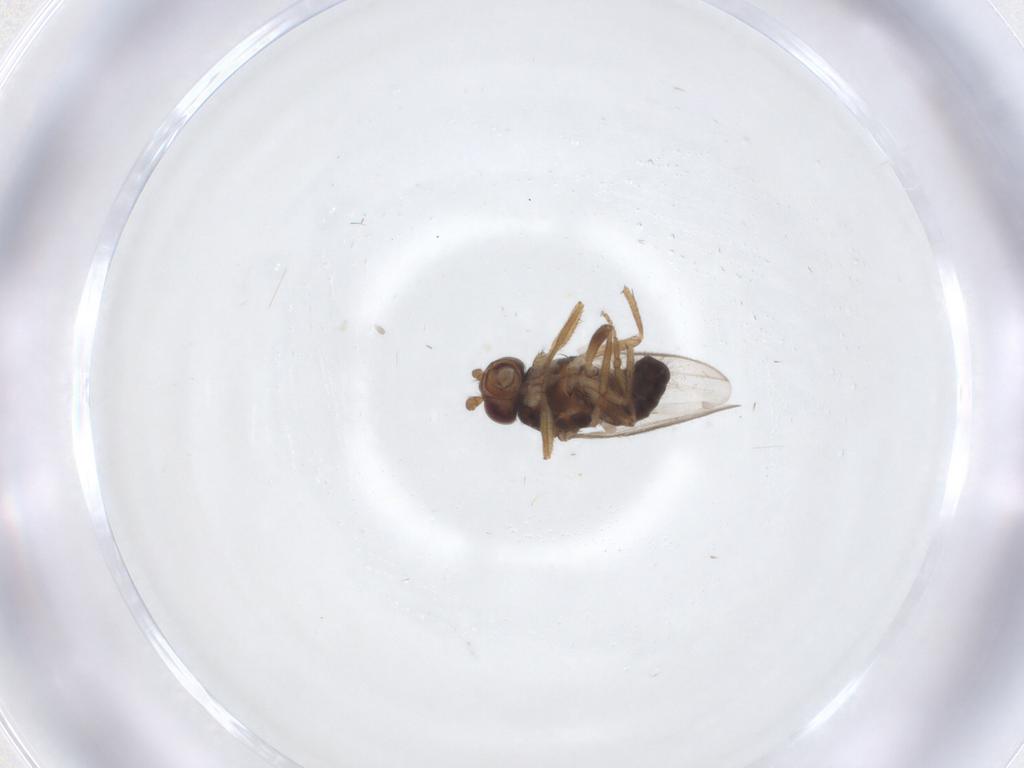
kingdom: Animalia
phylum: Arthropoda
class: Insecta
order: Diptera
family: Sphaeroceridae
